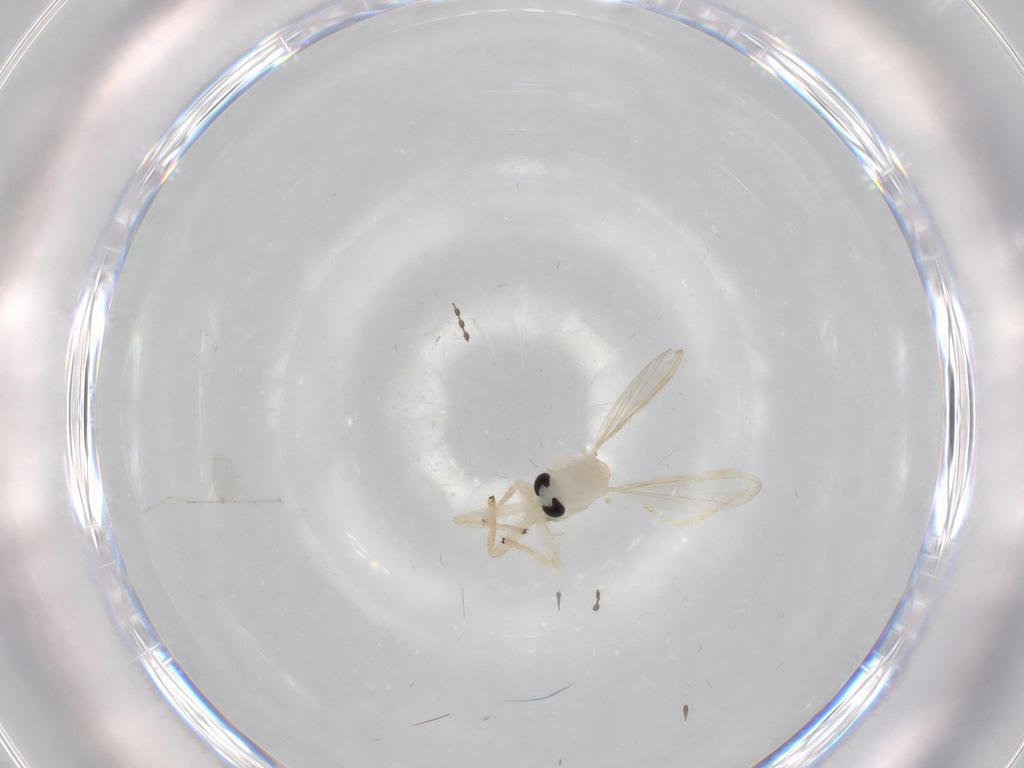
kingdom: Animalia
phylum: Arthropoda
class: Insecta
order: Diptera
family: Chironomidae
